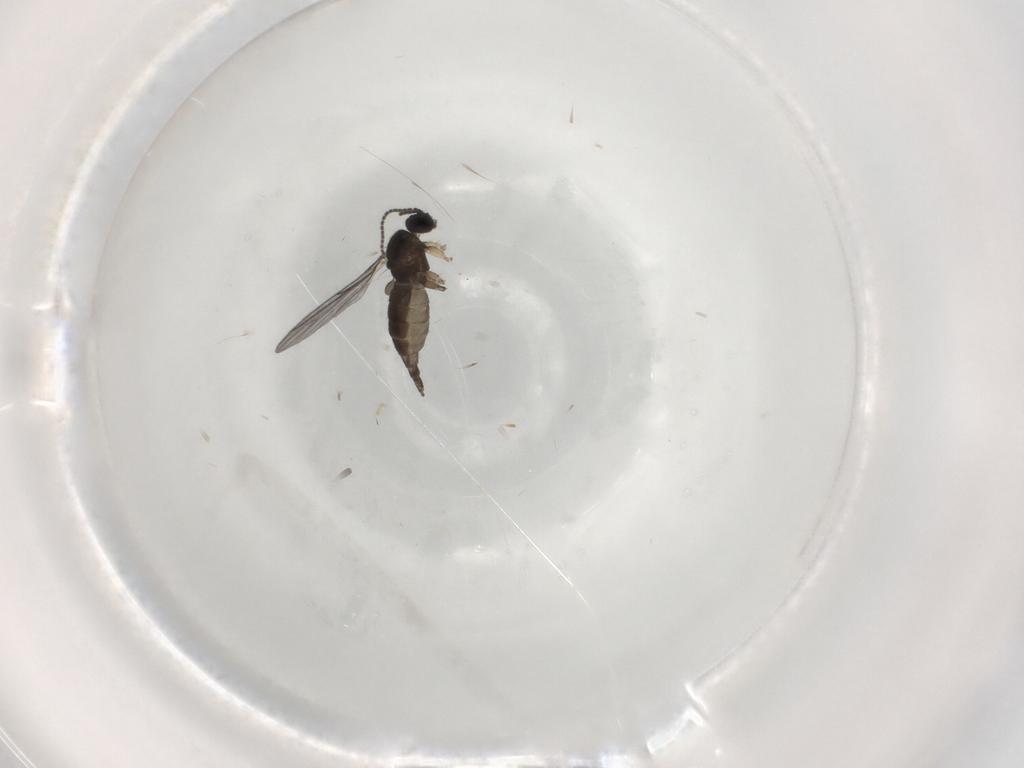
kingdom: Animalia
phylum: Arthropoda
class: Insecta
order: Diptera
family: Sciaridae
